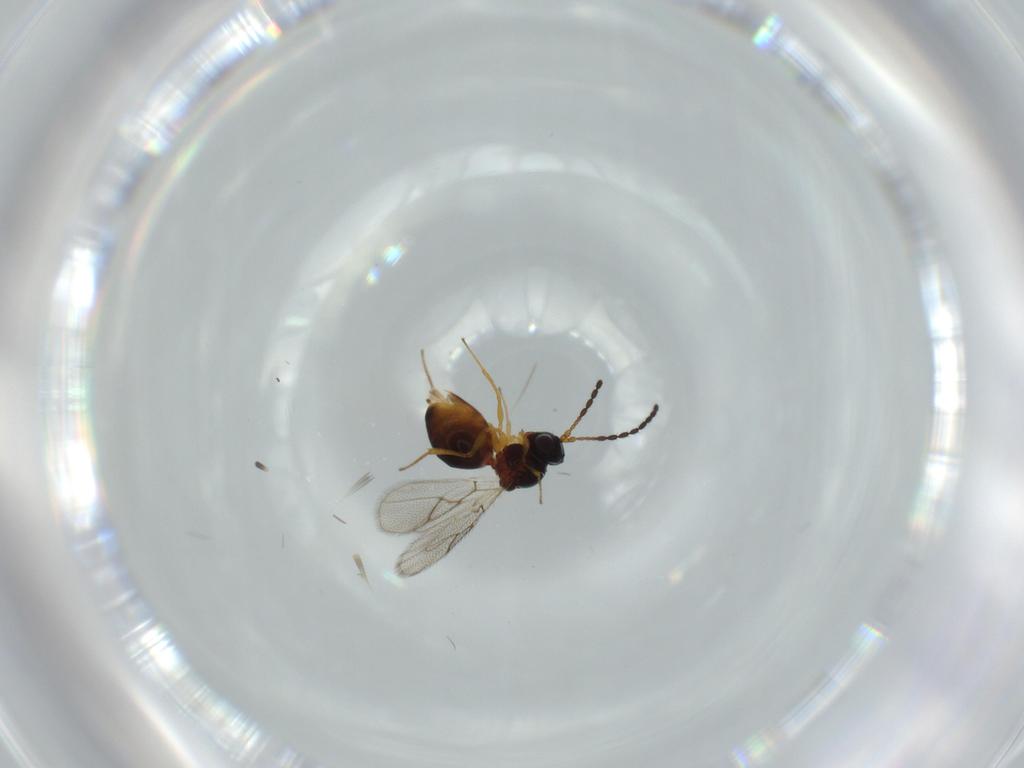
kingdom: Animalia
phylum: Arthropoda
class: Insecta
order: Hymenoptera
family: Figitidae
